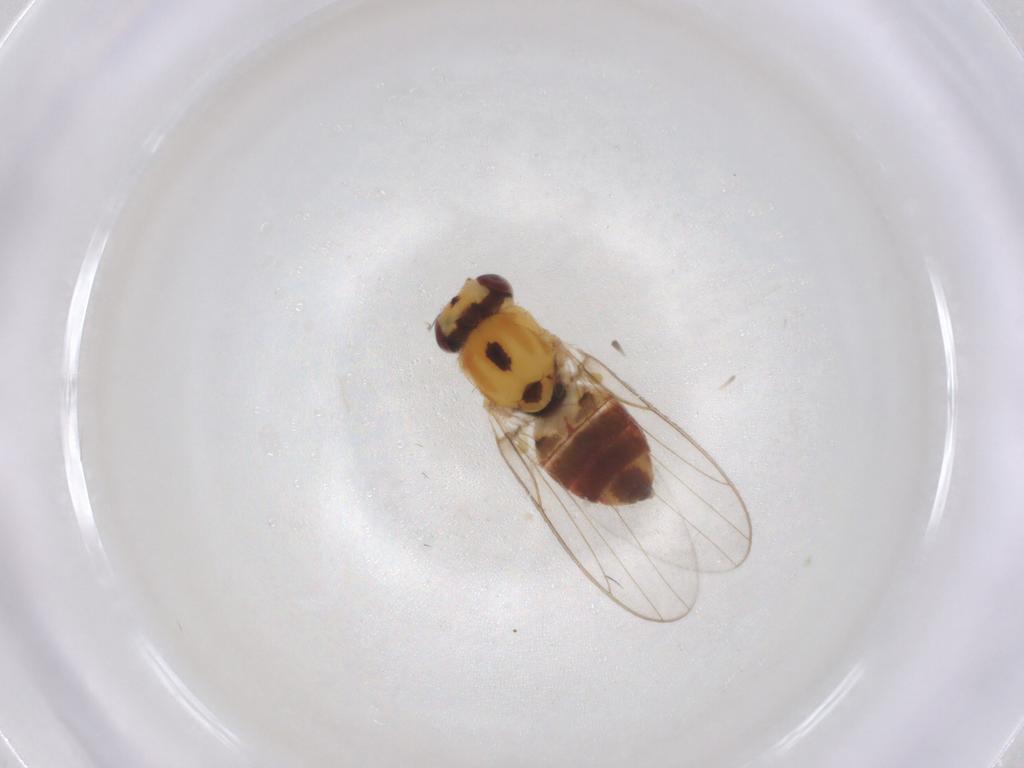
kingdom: Animalia
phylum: Arthropoda
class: Insecta
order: Diptera
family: Chloropidae
